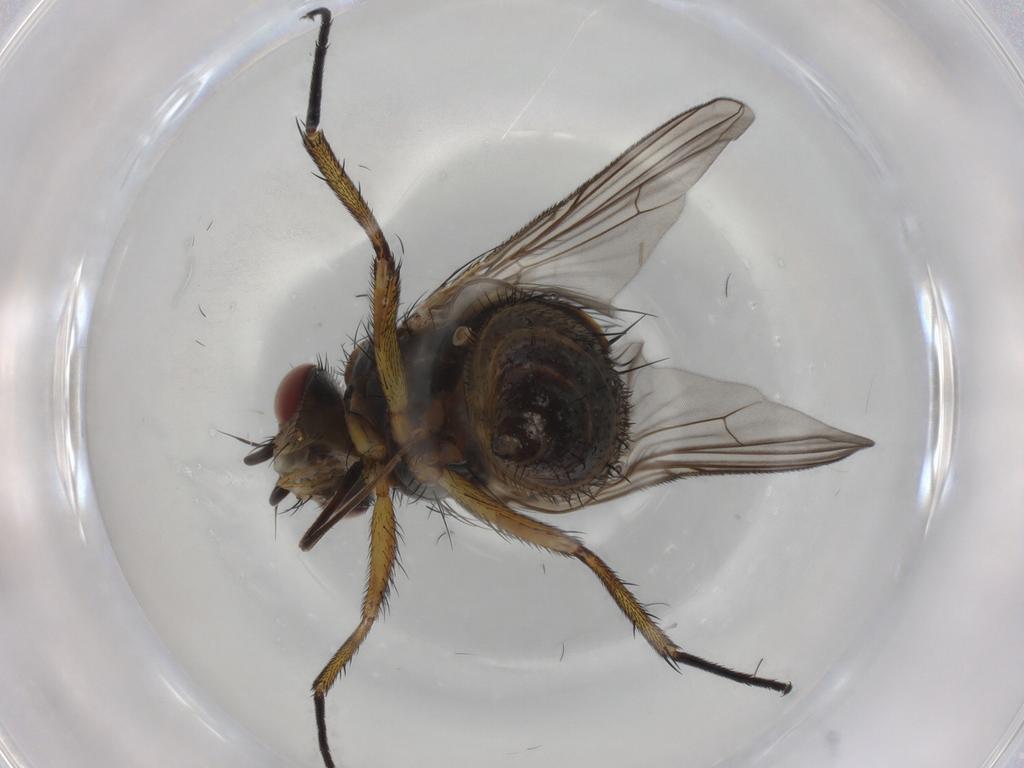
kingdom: Animalia
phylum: Arthropoda
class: Insecta
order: Diptera
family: Tachinidae
